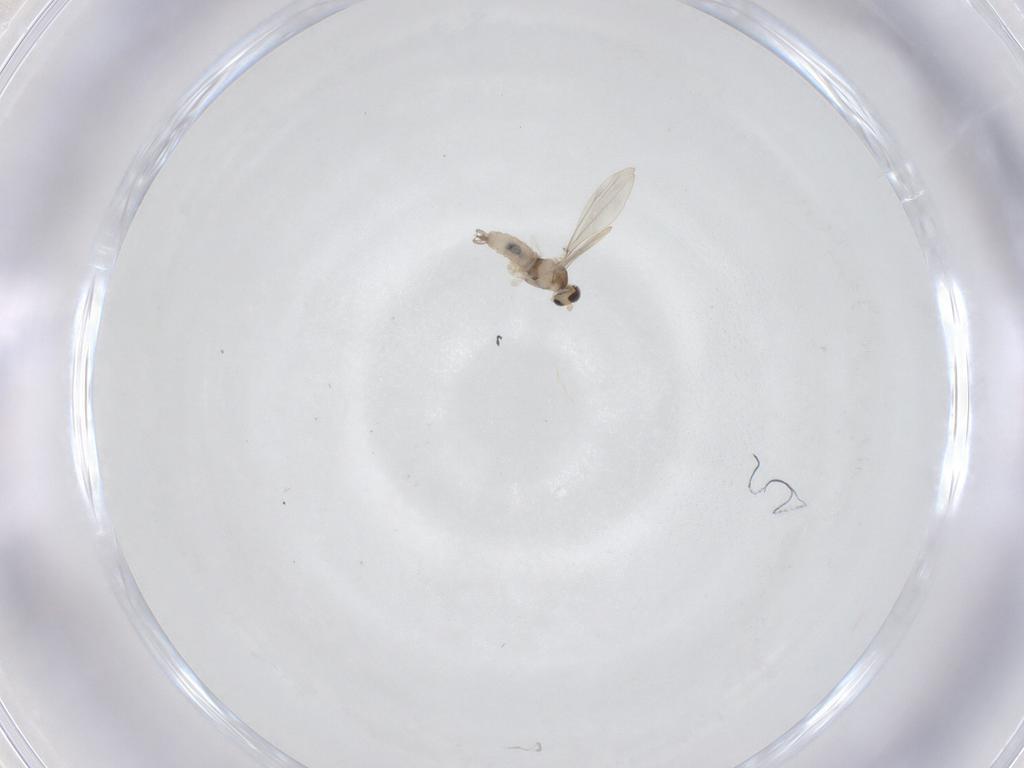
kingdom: Animalia
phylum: Arthropoda
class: Insecta
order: Diptera
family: Cecidomyiidae
